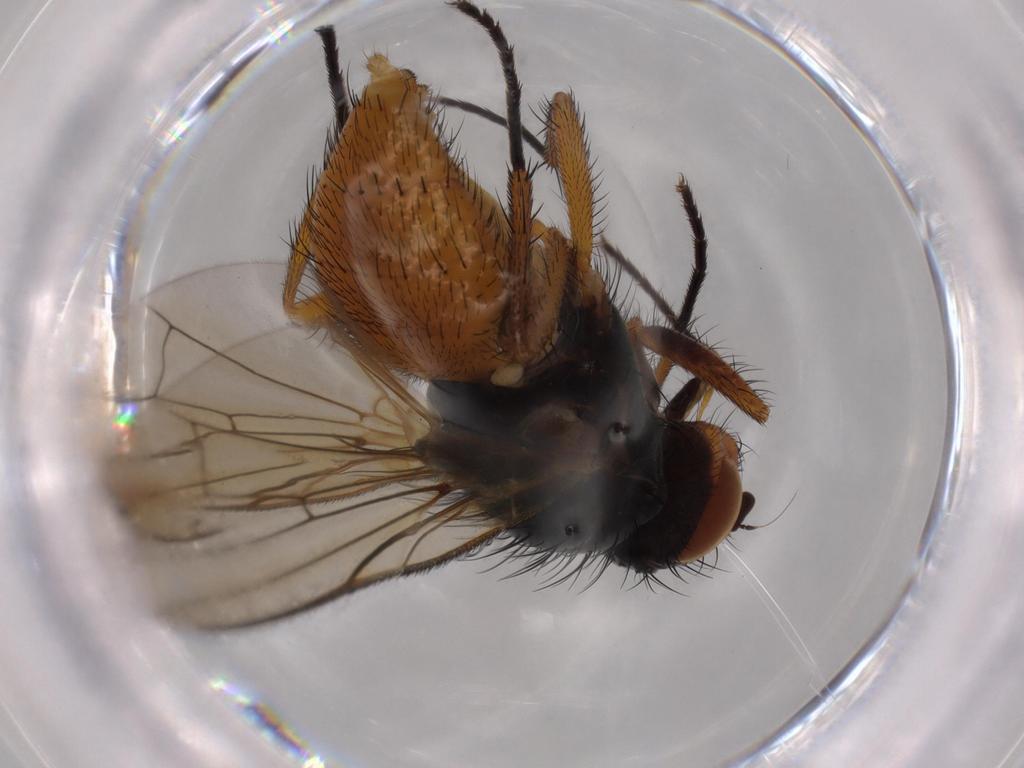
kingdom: Animalia
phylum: Arthropoda
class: Insecta
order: Diptera
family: Anthomyiidae
